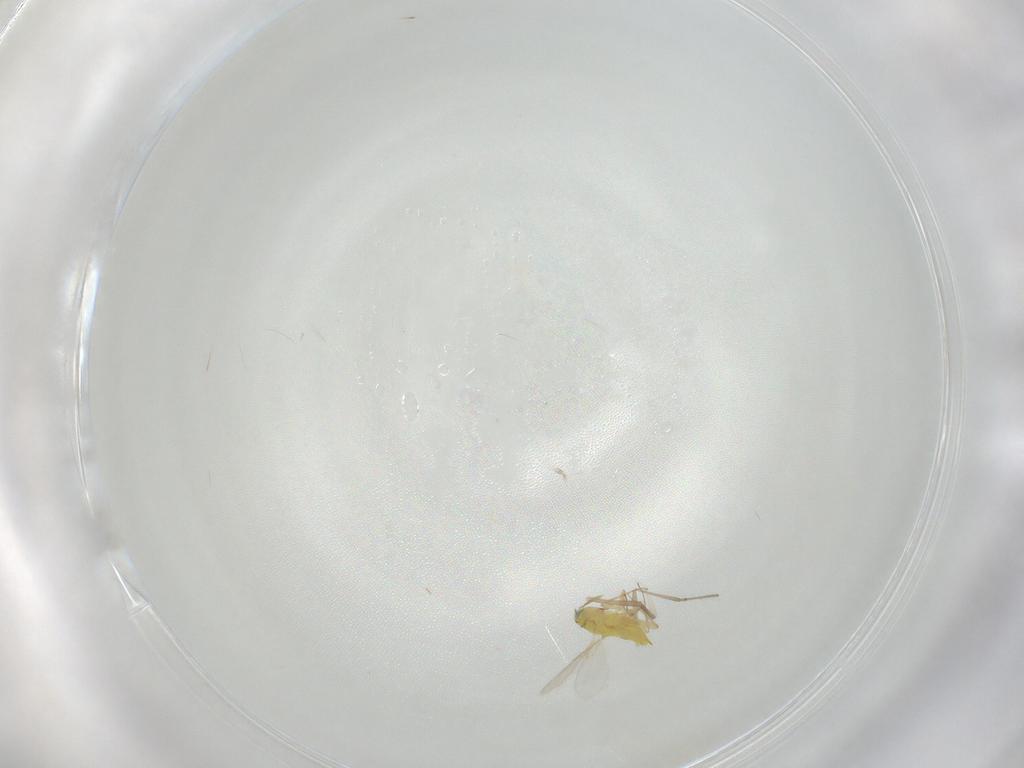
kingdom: Animalia
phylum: Arthropoda
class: Insecta
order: Hymenoptera
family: Aphelinidae
